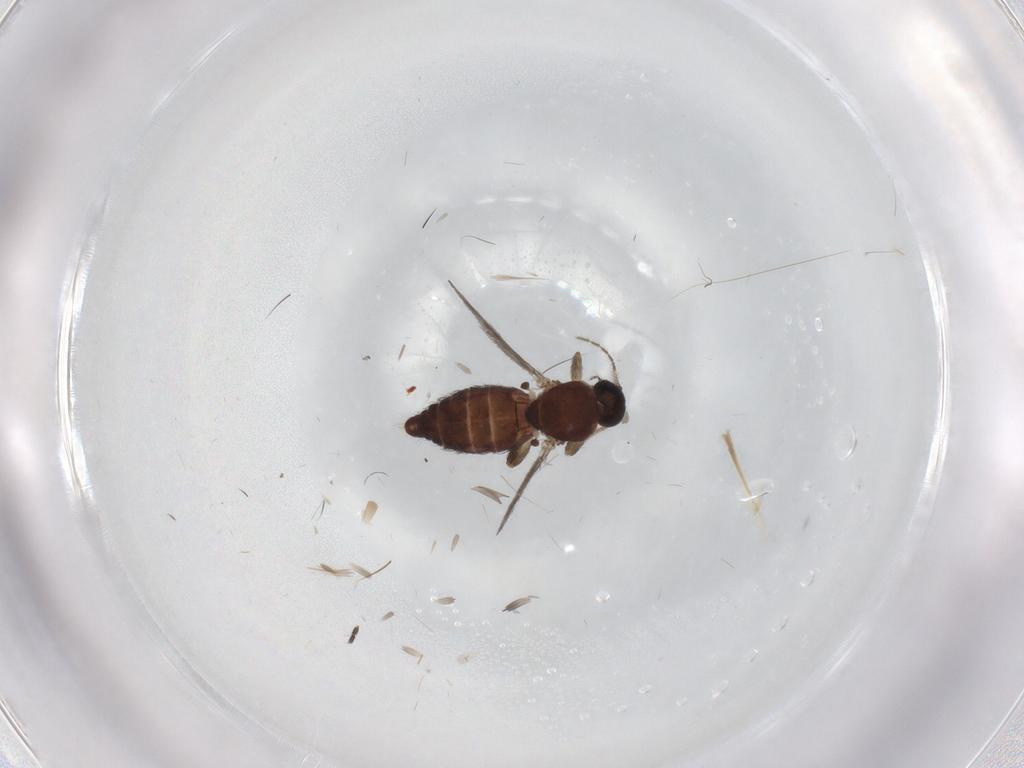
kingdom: Animalia
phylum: Arthropoda
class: Insecta
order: Diptera
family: Ceratopogonidae
